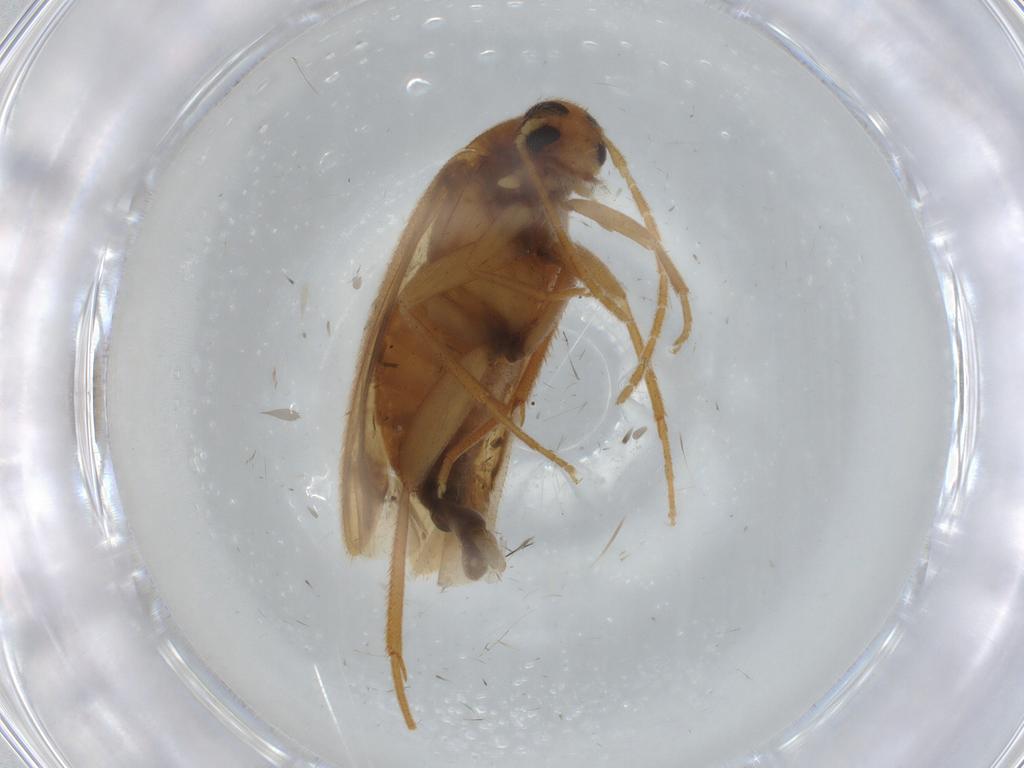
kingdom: Animalia
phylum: Arthropoda
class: Insecta
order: Coleoptera
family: Scraptiidae
